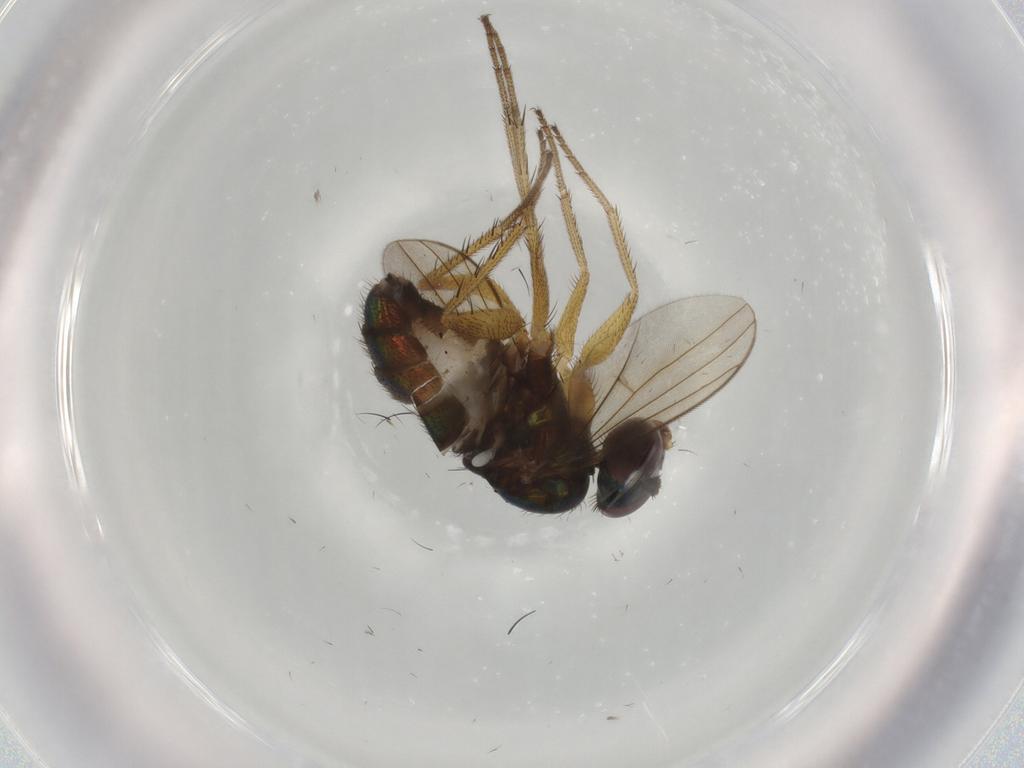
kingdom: Animalia
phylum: Arthropoda
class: Insecta
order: Diptera
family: Dolichopodidae
